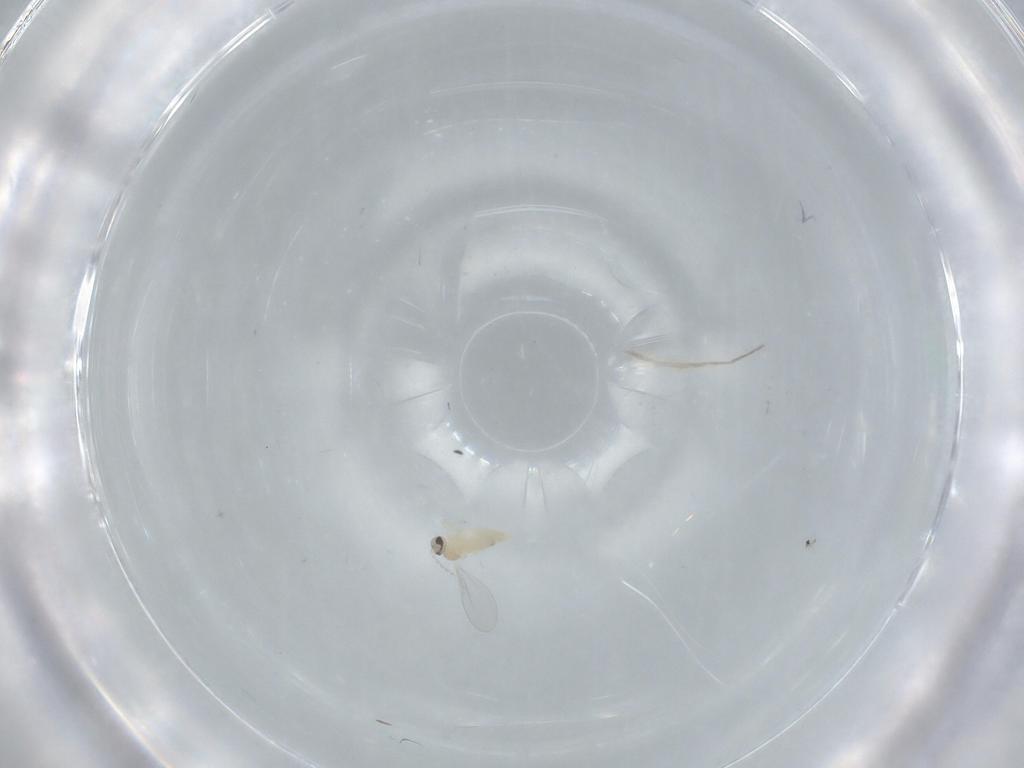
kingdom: Animalia
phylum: Arthropoda
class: Insecta
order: Diptera
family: Cecidomyiidae
